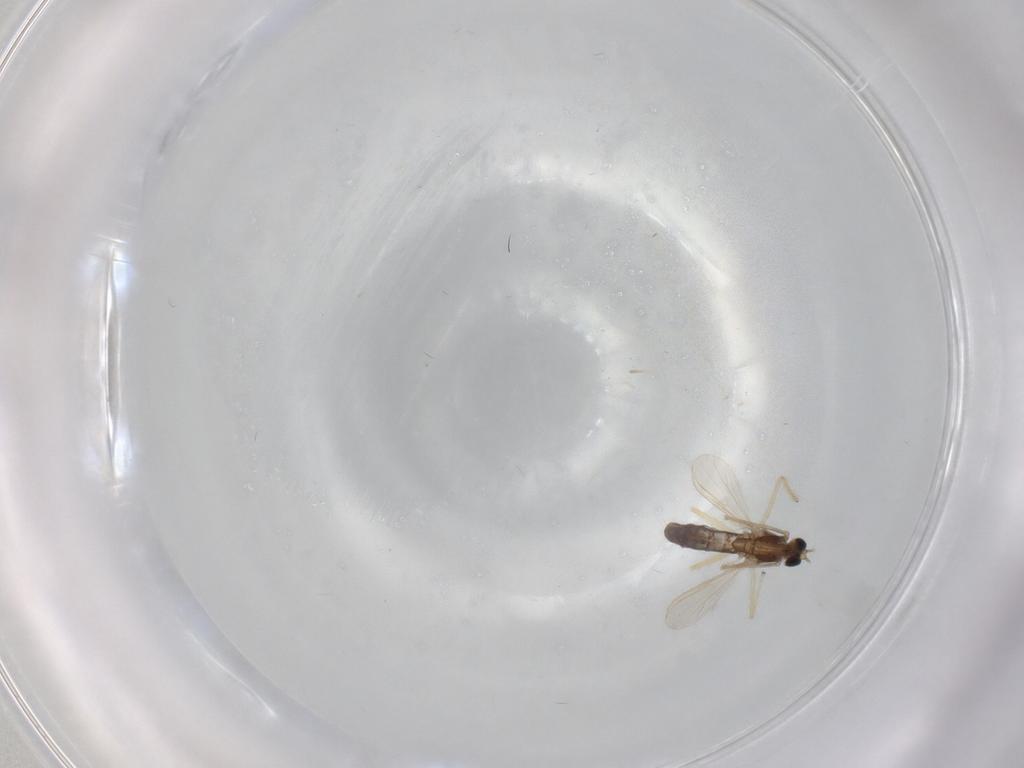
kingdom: Animalia
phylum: Arthropoda
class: Insecta
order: Diptera
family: Chironomidae
